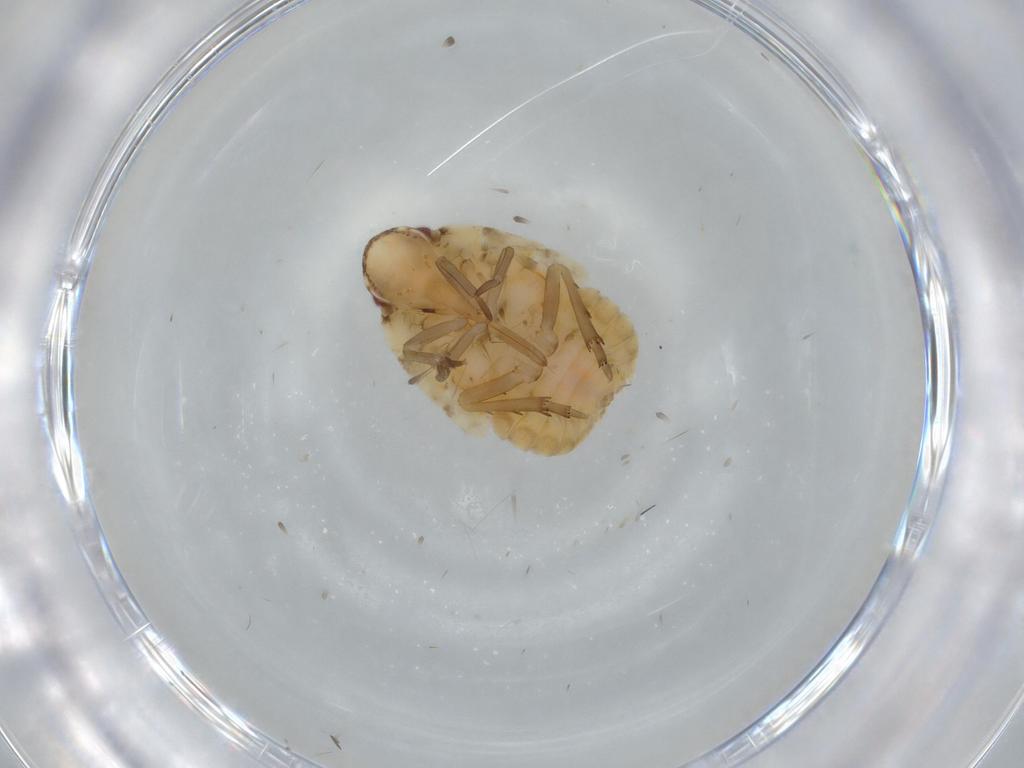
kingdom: Animalia
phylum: Arthropoda
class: Insecta
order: Hemiptera
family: Flatidae
